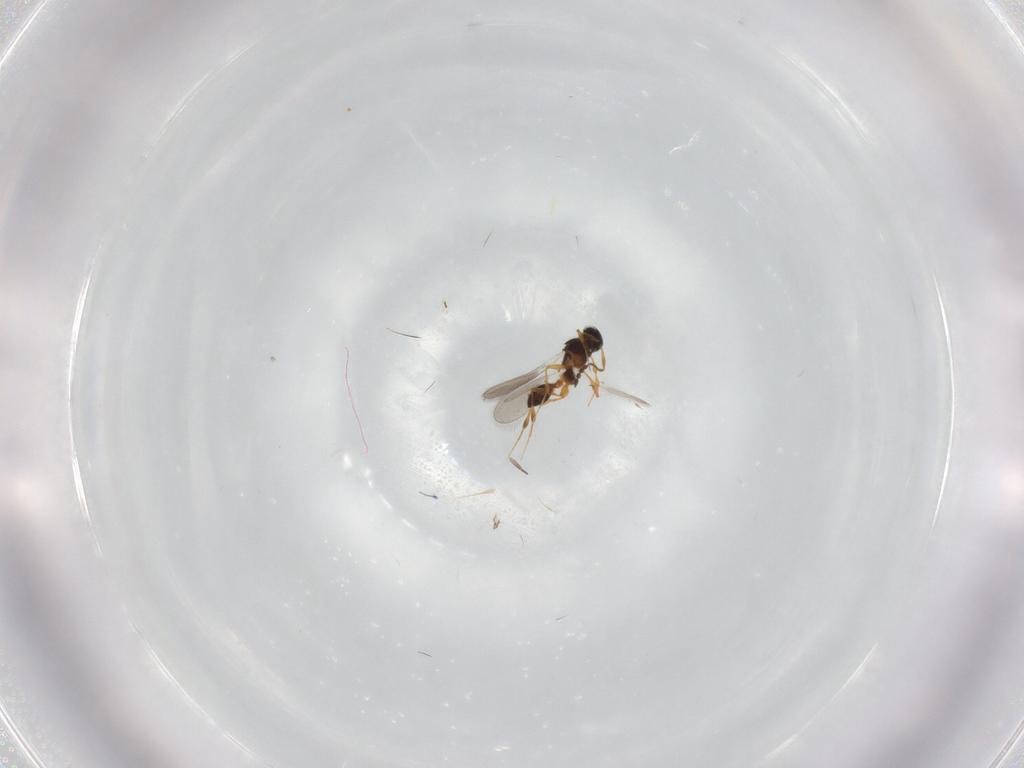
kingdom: Animalia
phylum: Arthropoda
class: Insecta
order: Hymenoptera
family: Platygastridae
